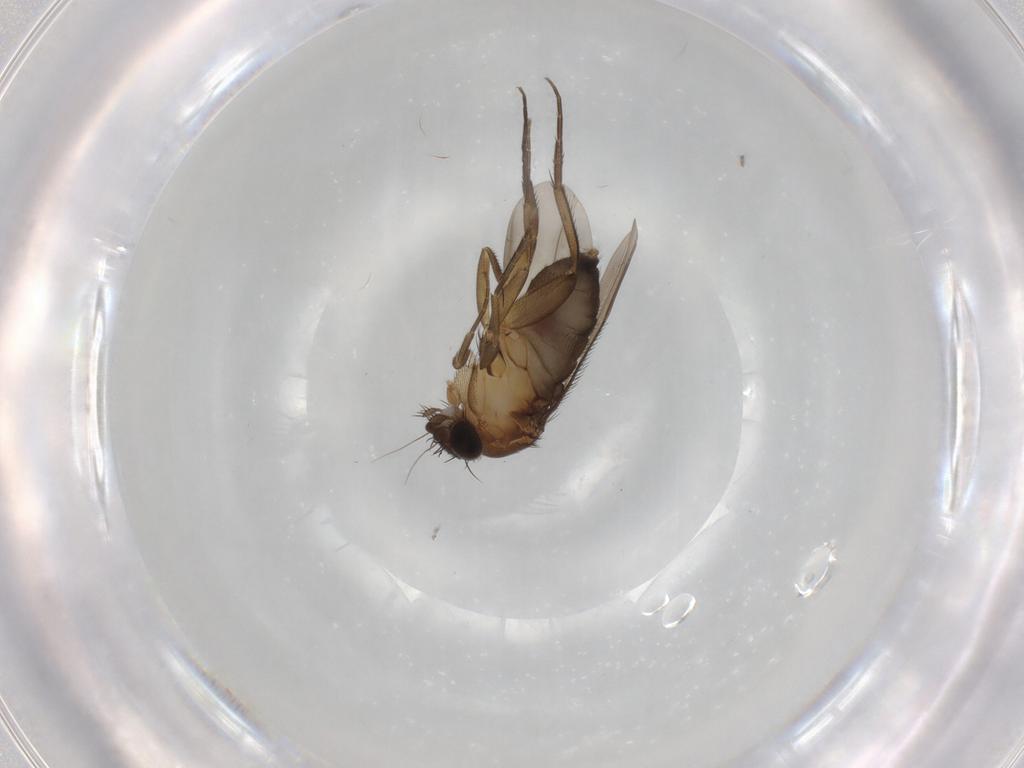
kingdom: Animalia
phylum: Arthropoda
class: Insecta
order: Diptera
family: Phoridae
